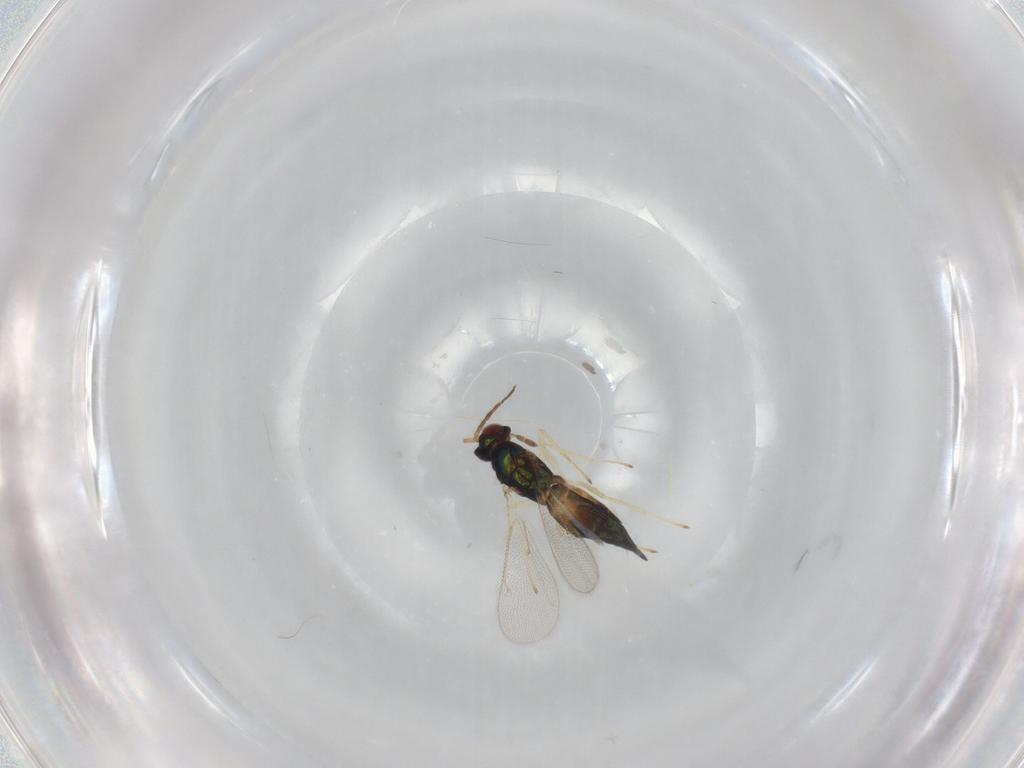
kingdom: Animalia
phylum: Arthropoda
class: Insecta
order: Hymenoptera
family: Eulophidae
